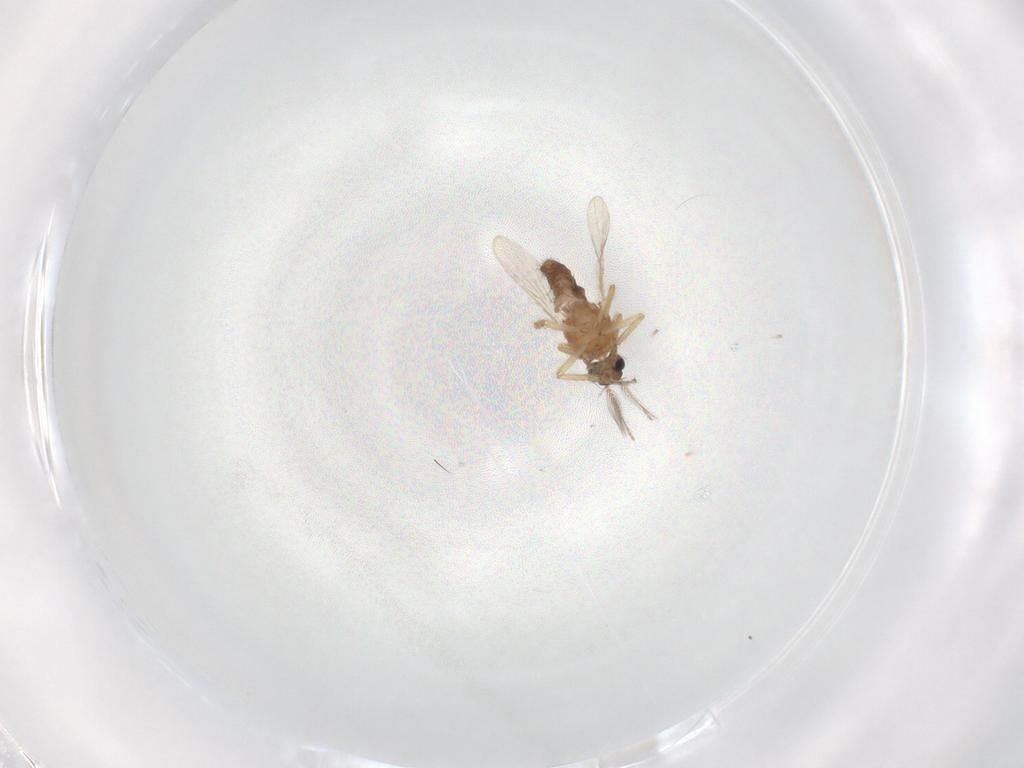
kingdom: Animalia
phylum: Arthropoda
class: Insecta
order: Diptera
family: Ceratopogonidae
